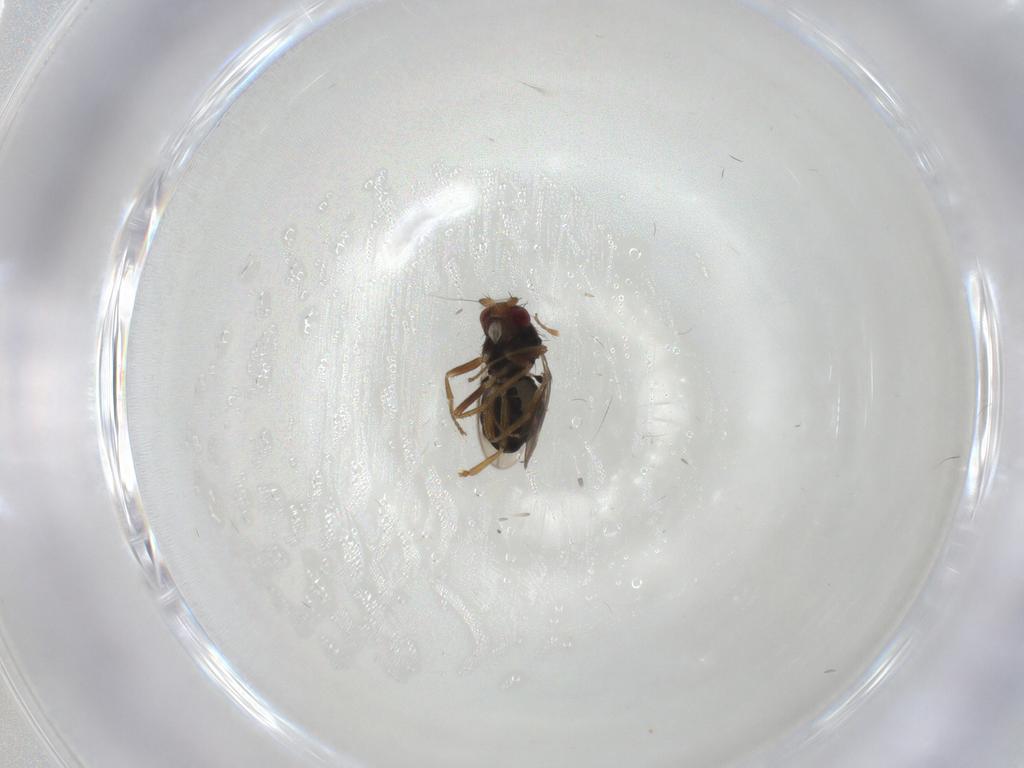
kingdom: Animalia
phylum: Arthropoda
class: Insecta
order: Diptera
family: Sphaeroceridae
